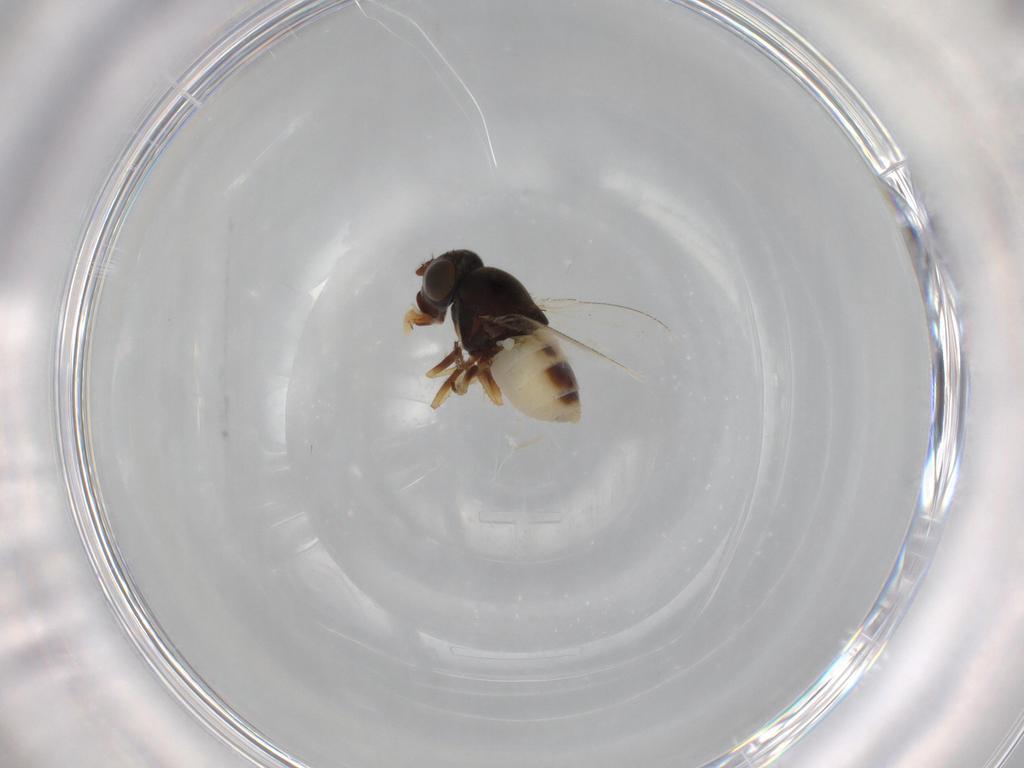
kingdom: Animalia
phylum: Arthropoda
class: Insecta
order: Diptera
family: Ephydridae
